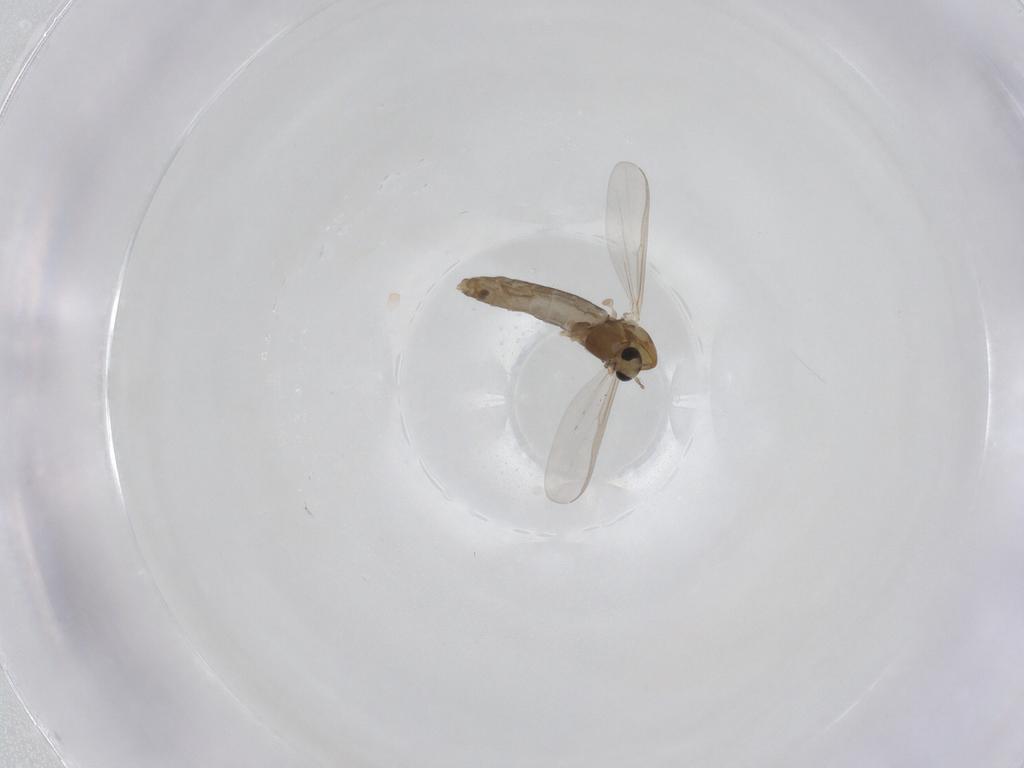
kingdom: Animalia
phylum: Arthropoda
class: Insecta
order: Diptera
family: Chironomidae
